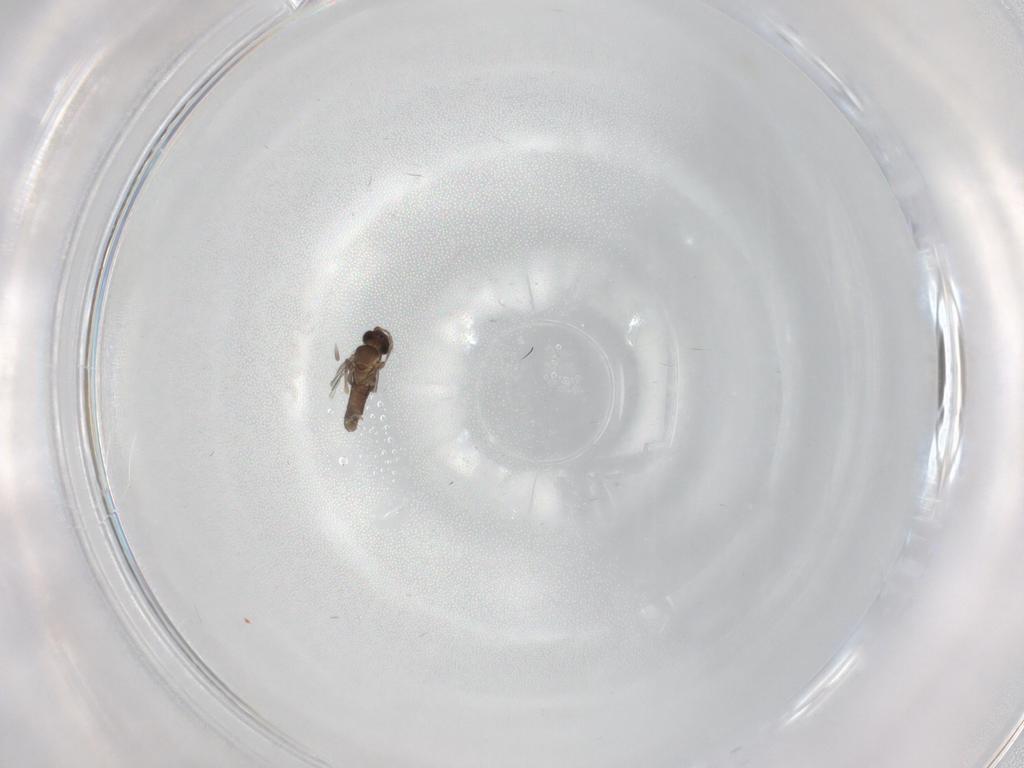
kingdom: Animalia
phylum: Arthropoda
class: Insecta
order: Diptera
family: Cecidomyiidae
